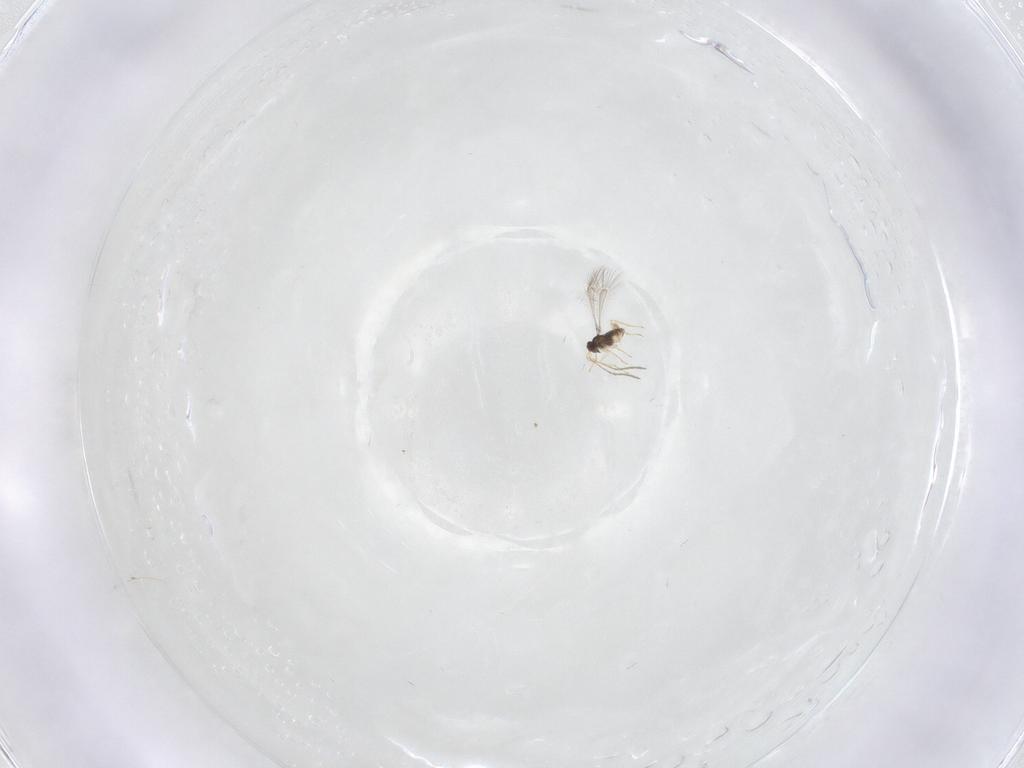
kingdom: Animalia
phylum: Arthropoda
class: Insecta
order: Hymenoptera
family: Mymaridae
